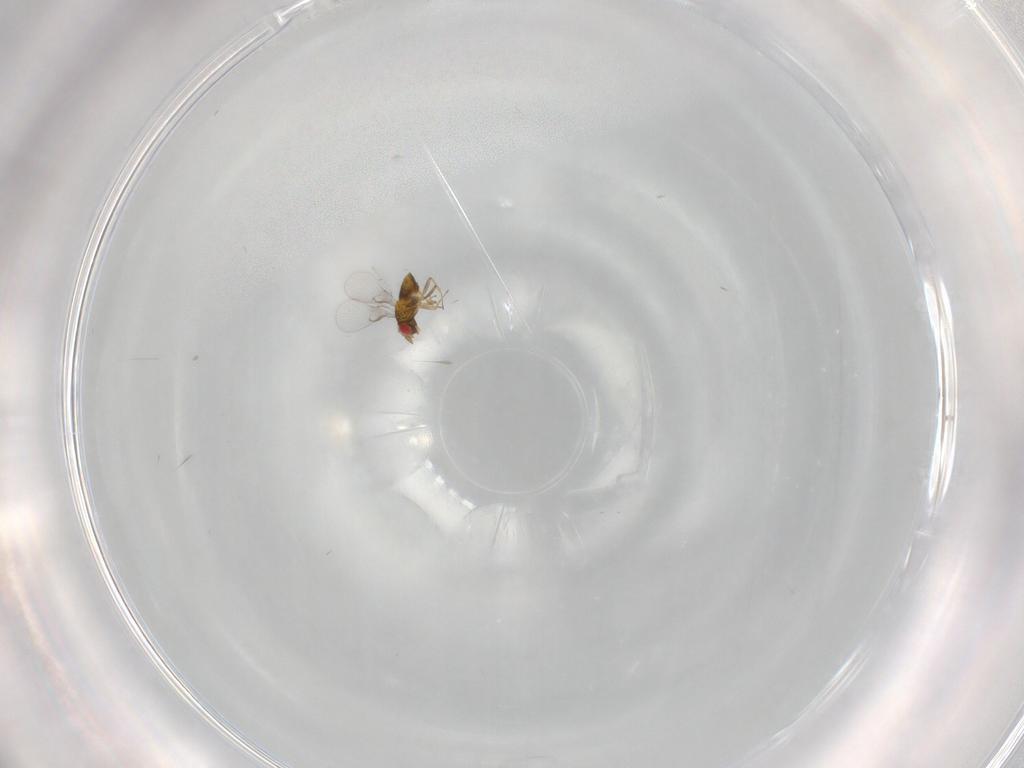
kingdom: Animalia
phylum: Arthropoda
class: Insecta
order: Hymenoptera
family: Trichogrammatidae
